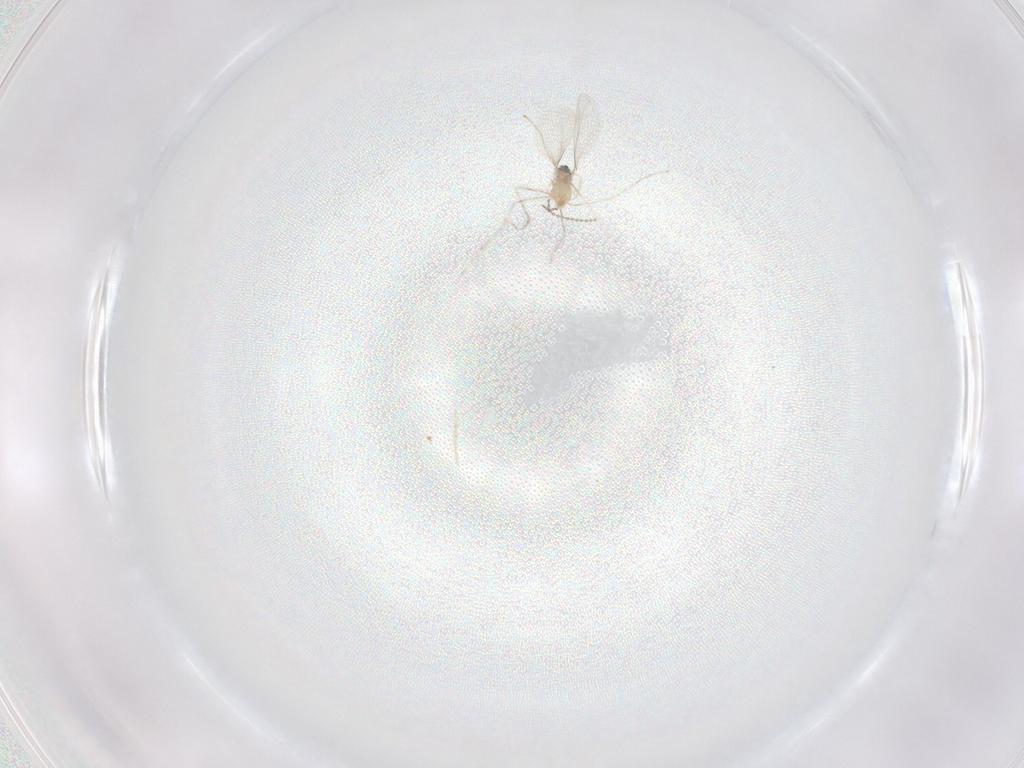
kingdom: Animalia
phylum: Arthropoda
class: Insecta
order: Diptera
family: Cecidomyiidae
